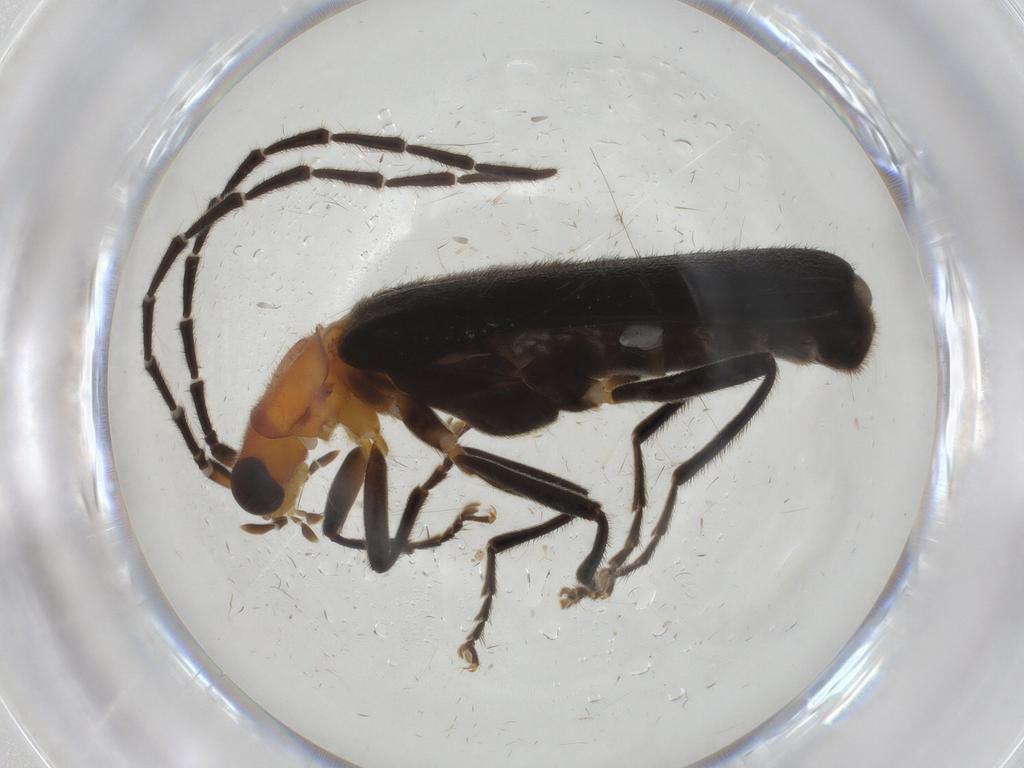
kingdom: Animalia
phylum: Arthropoda
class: Insecta
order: Coleoptera
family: Cantharidae
